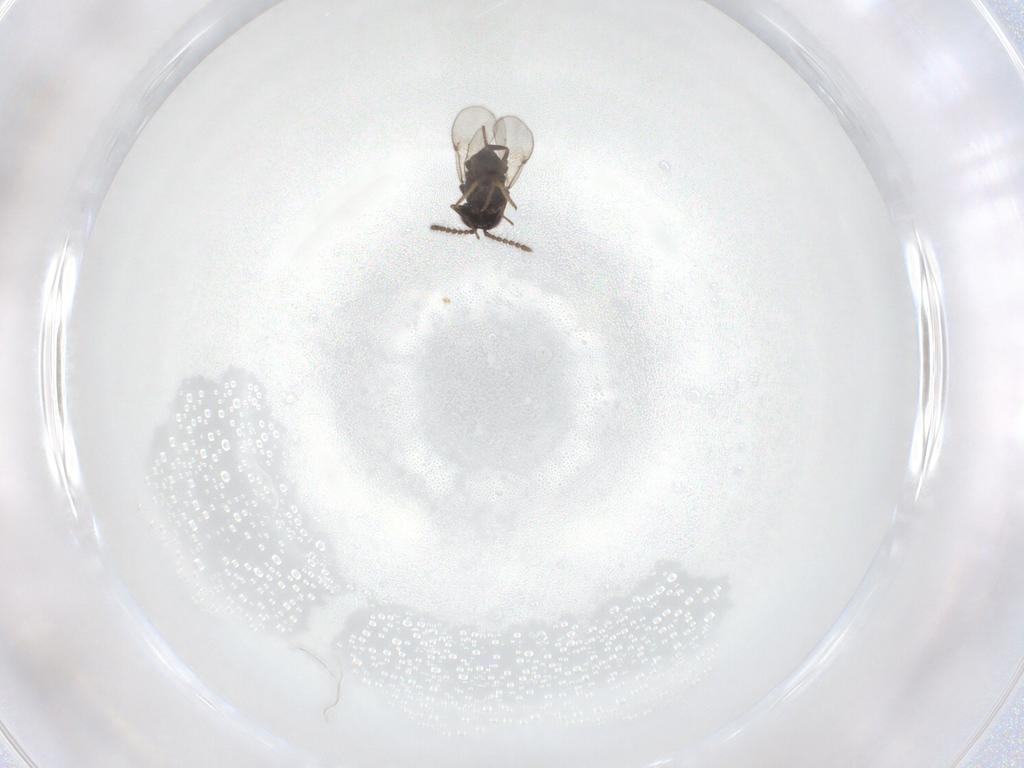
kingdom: Animalia
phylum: Arthropoda
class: Insecta
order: Hymenoptera
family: Encyrtidae
